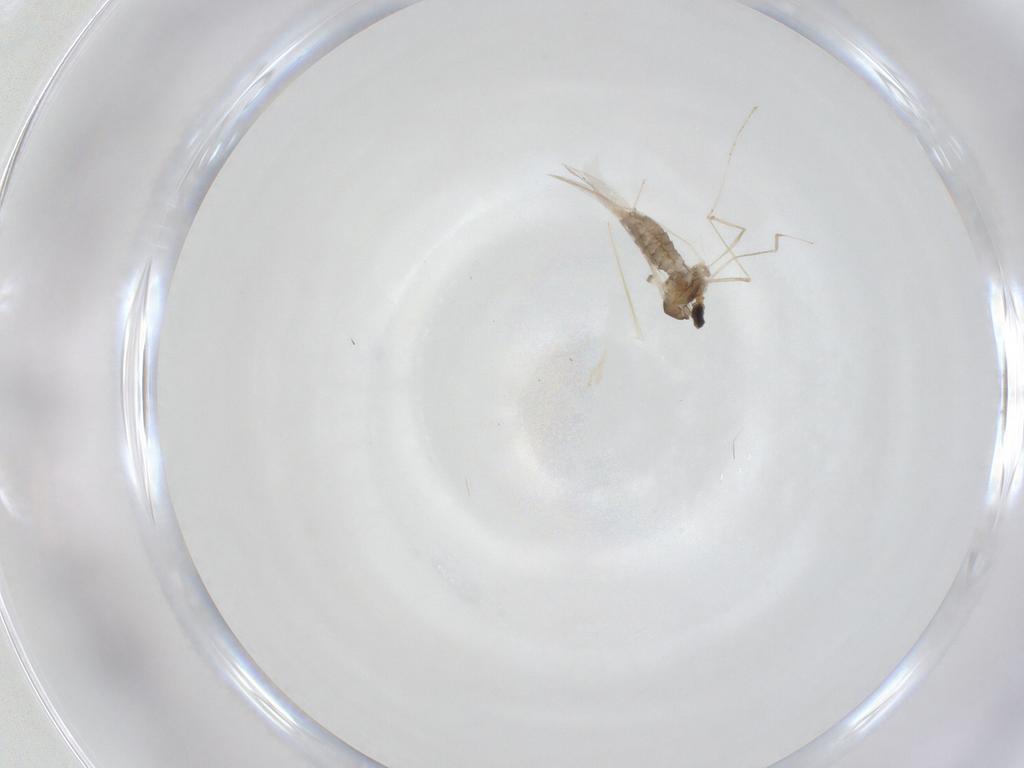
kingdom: Animalia
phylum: Arthropoda
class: Insecta
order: Diptera
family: Cecidomyiidae
